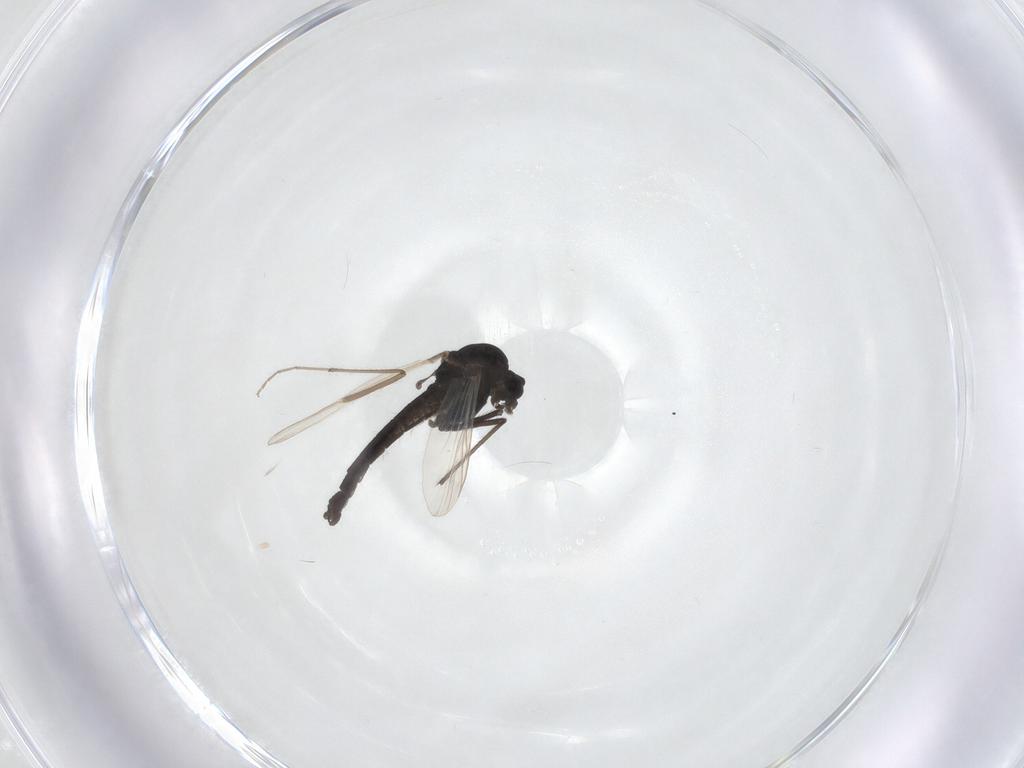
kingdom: Animalia
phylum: Arthropoda
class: Insecta
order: Diptera
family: Chironomidae
